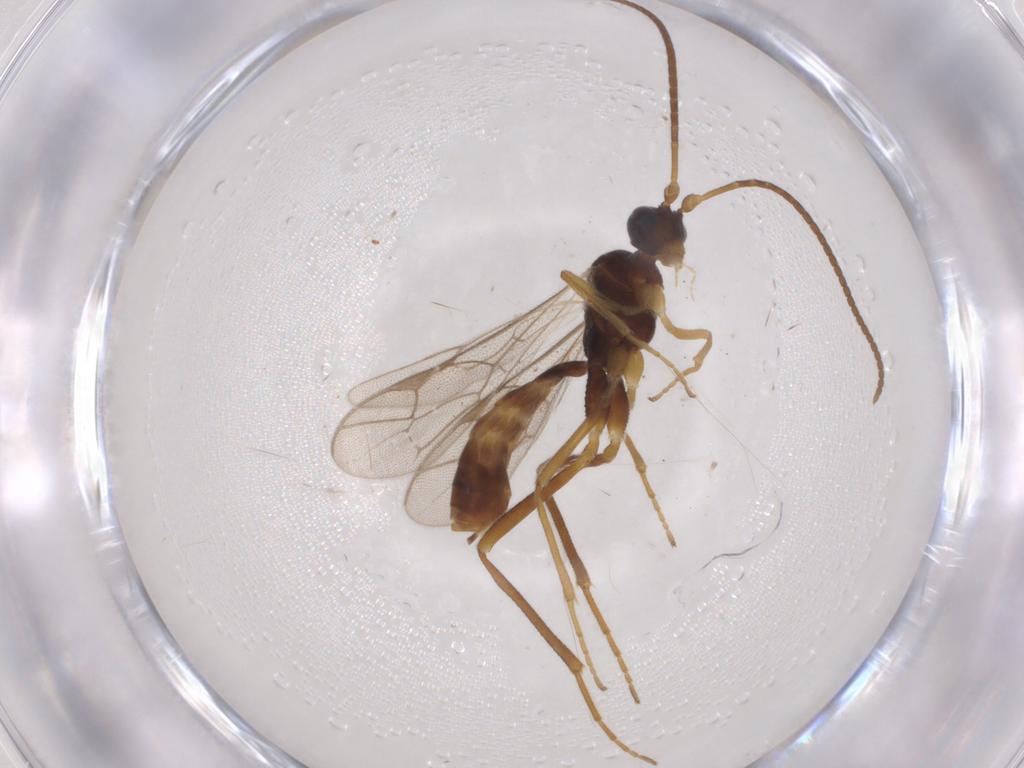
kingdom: Animalia
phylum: Arthropoda
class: Insecta
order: Hymenoptera
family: Ichneumonidae
